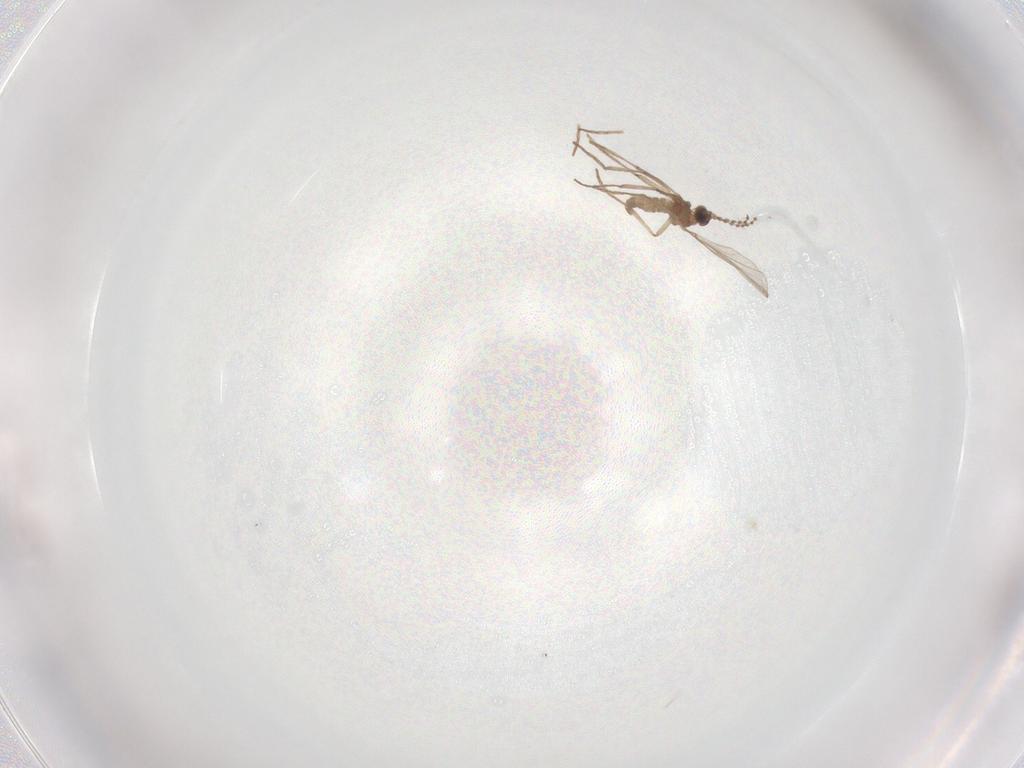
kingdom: Animalia
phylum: Arthropoda
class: Insecta
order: Diptera
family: Cecidomyiidae
